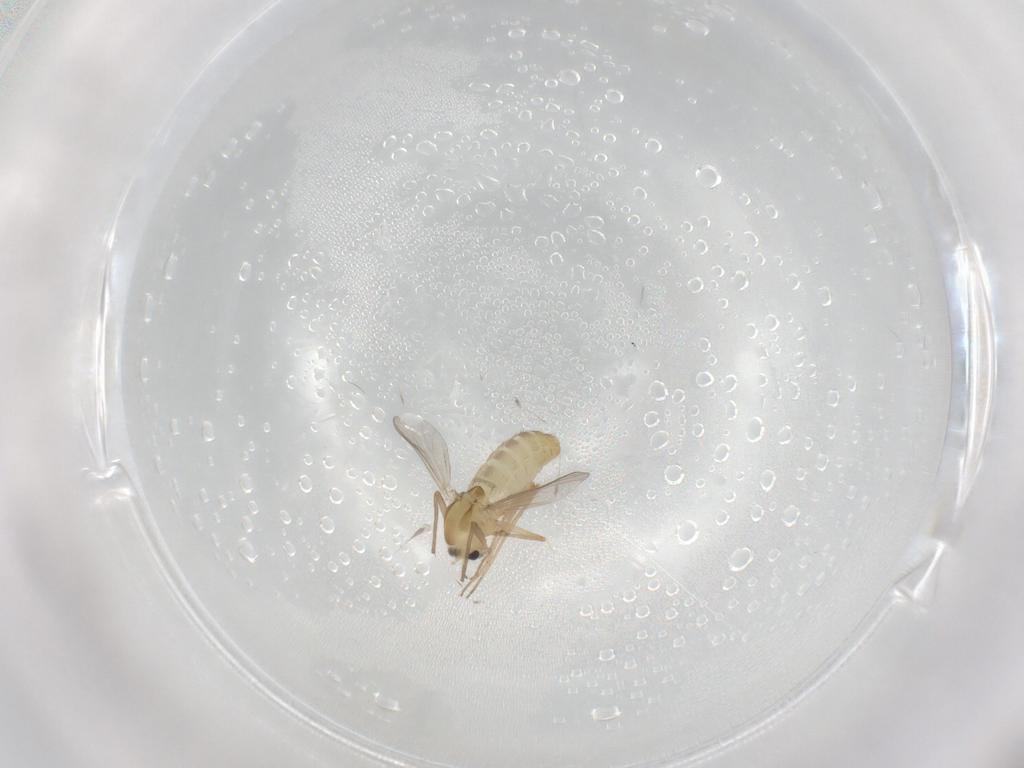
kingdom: Animalia
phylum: Arthropoda
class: Insecta
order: Diptera
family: Chironomidae
